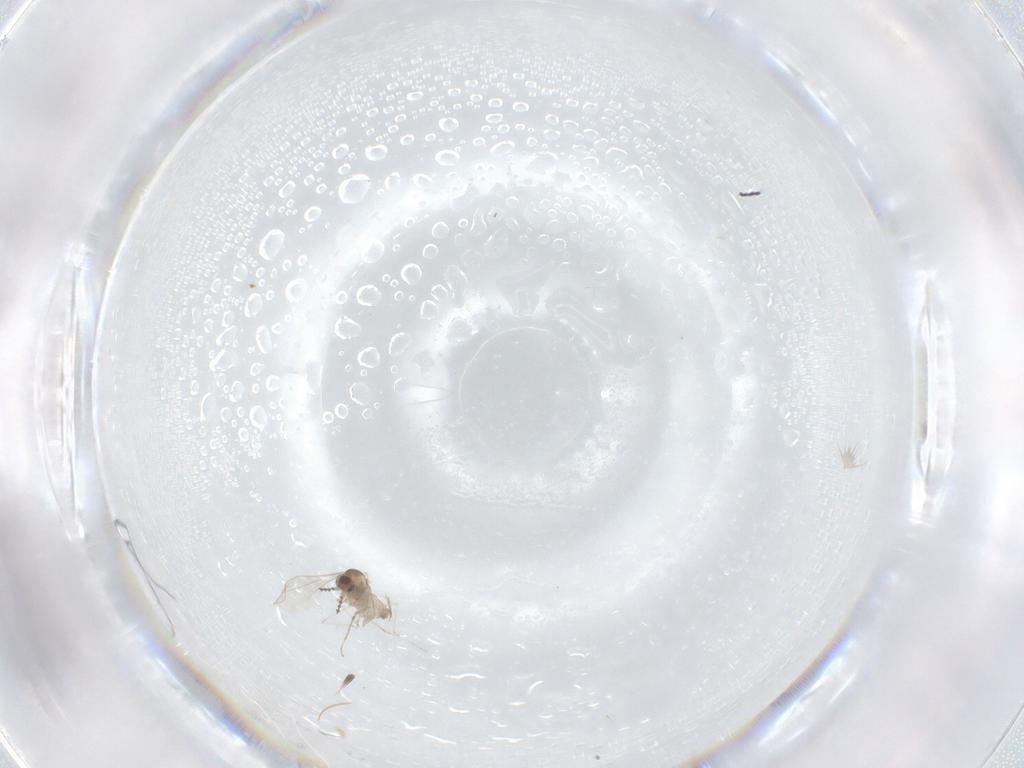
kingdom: Animalia
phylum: Arthropoda
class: Insecta
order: Diptera
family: Cecidomyiidae
